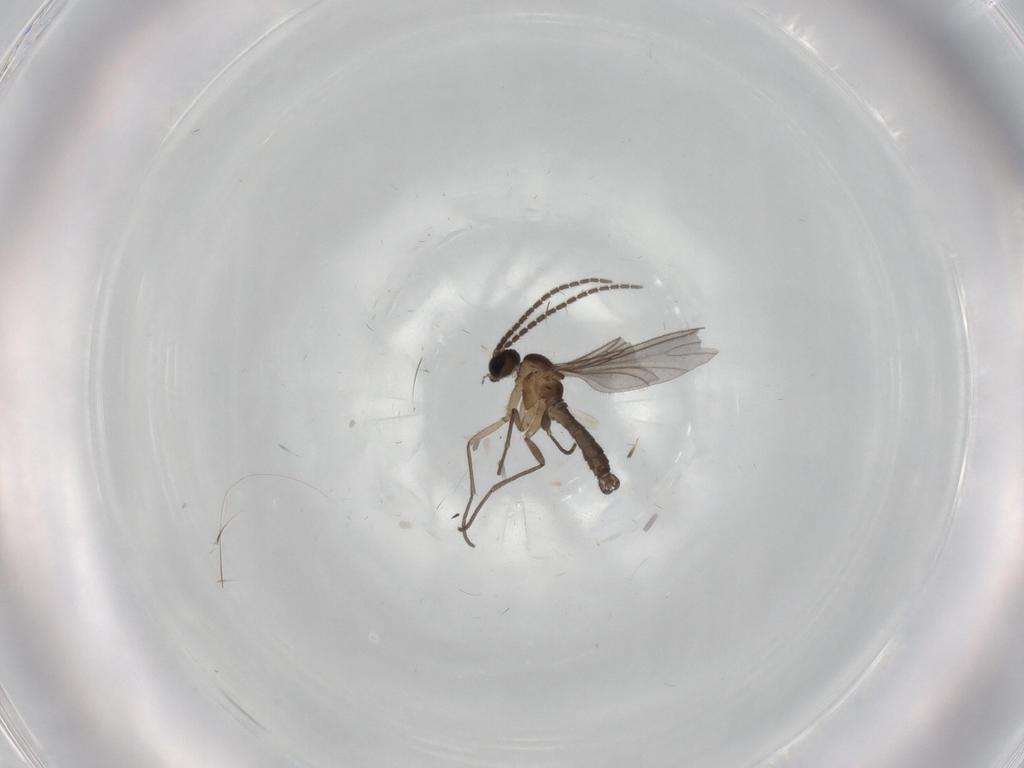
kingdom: Animalia
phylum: Arthropoda
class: Insecta
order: Diptera
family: Sciaridae
